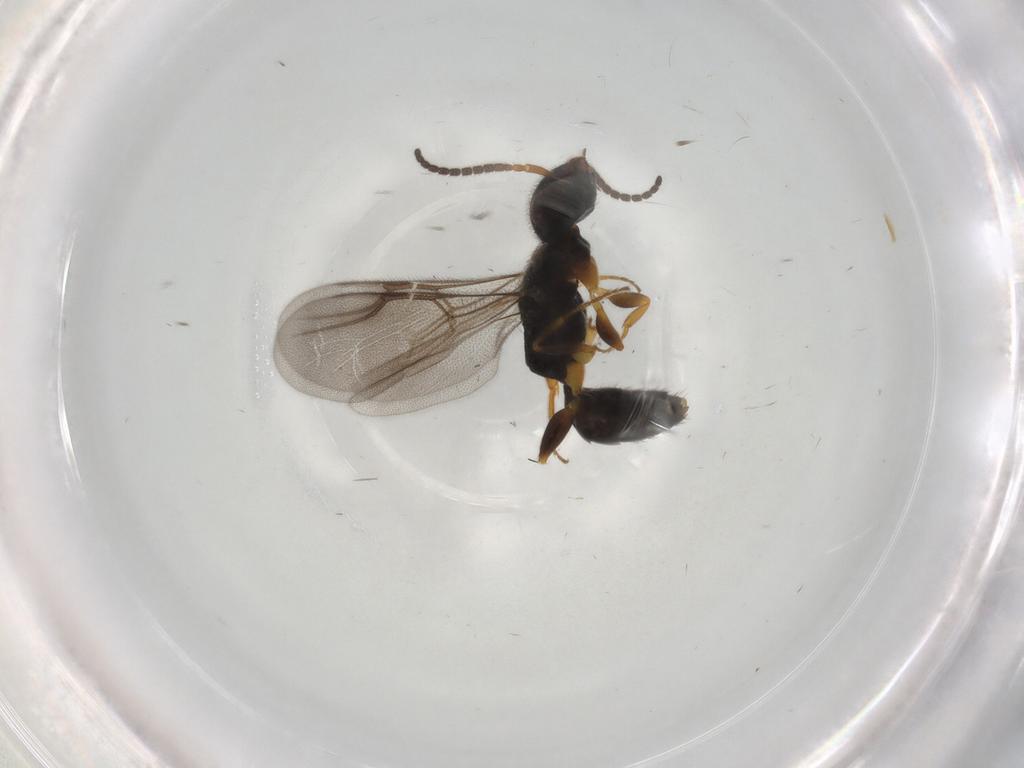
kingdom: Animalia
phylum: Arthropoda
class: Insecta
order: Hymenoptera
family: Bethylidae
